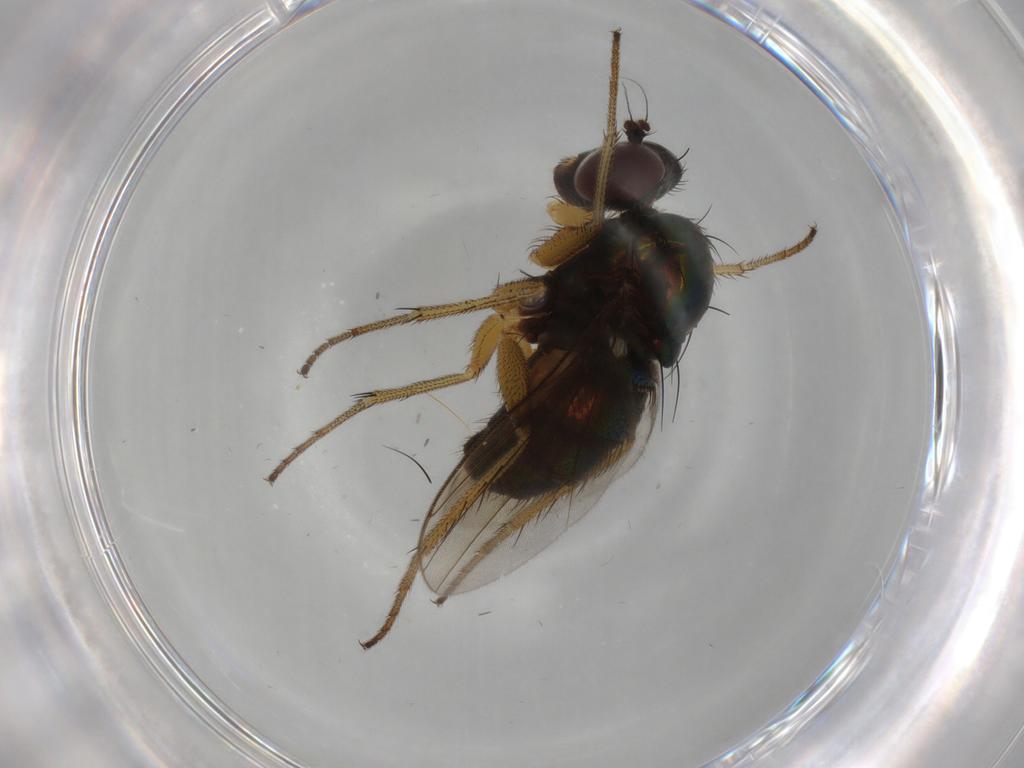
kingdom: Animalia
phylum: Arthropoda
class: Insecta
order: Diptera
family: Dolichopodidae
